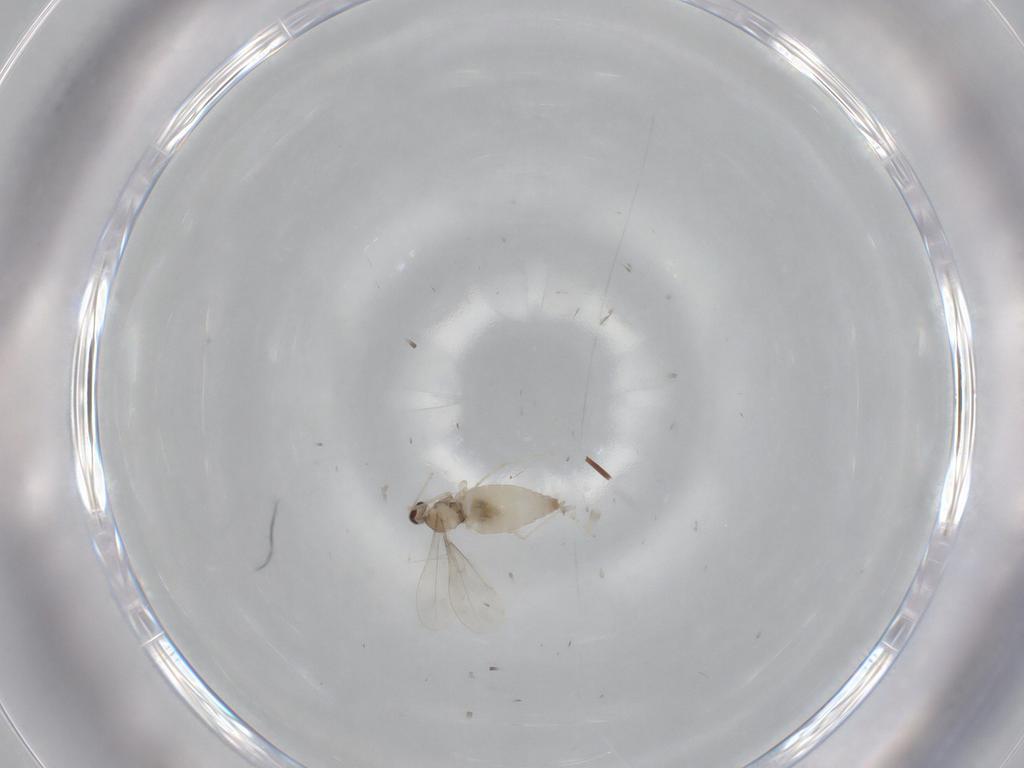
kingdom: Animalia
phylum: Arthropoda
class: Insecta
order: Diptera
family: Cecidomyiidae
